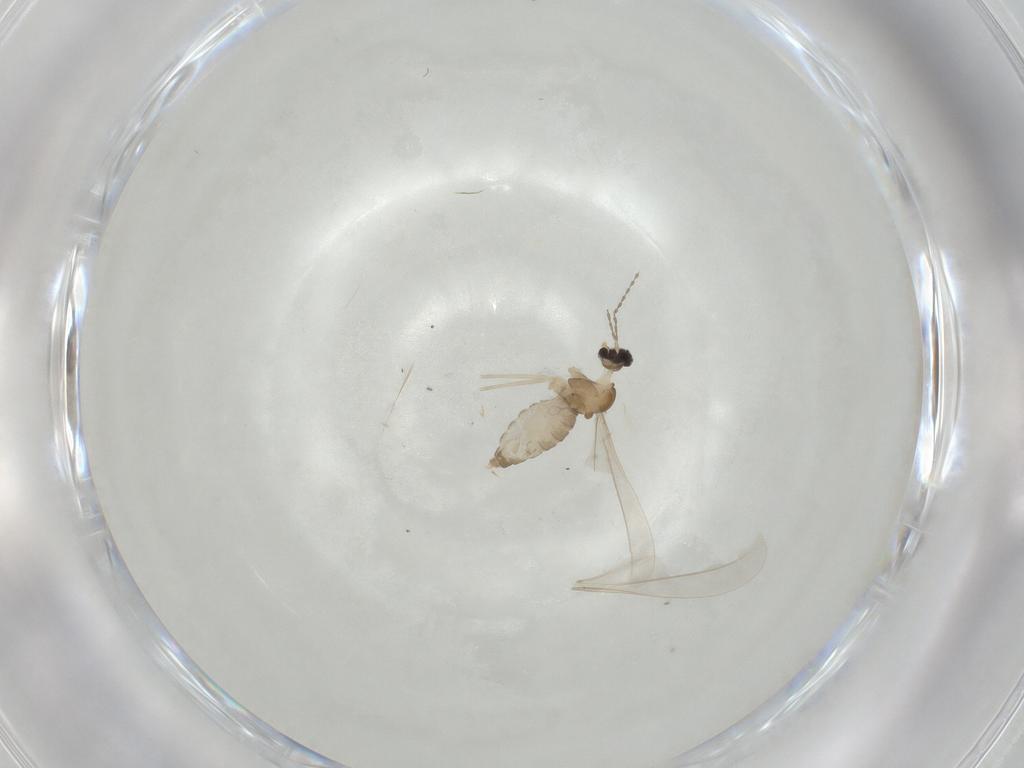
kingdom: Animalia
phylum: Arthropoda
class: Insecta
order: Diptera
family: Cecidomyiidae
